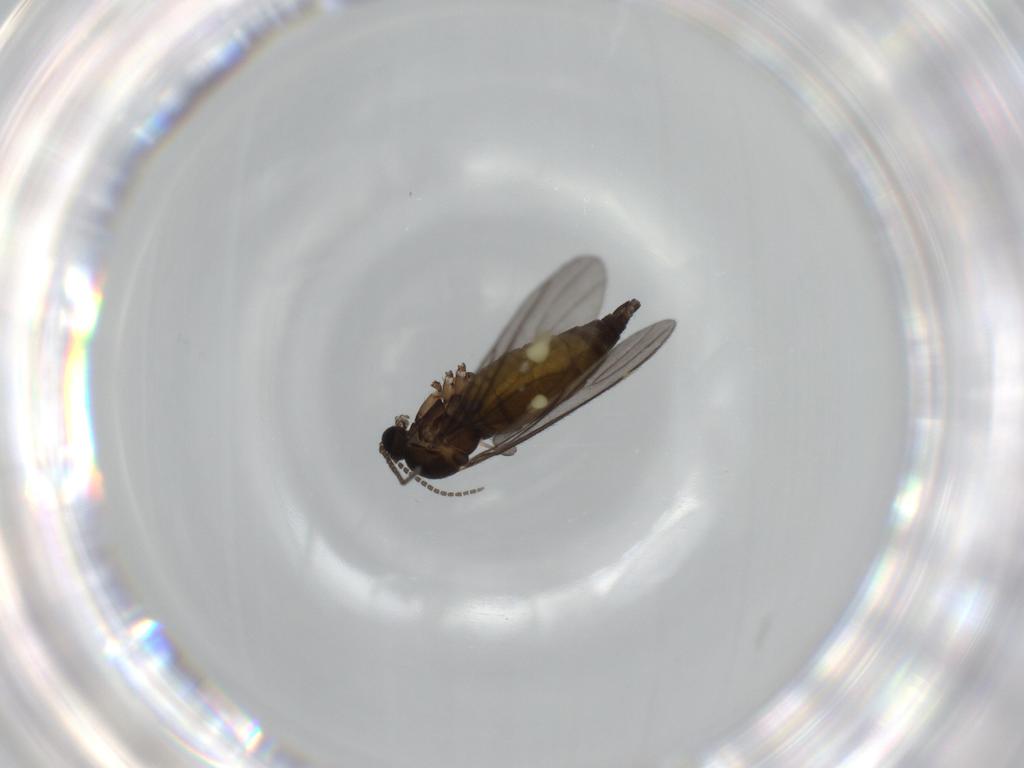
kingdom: Animalia
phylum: Arthropoda
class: Insecta
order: Diptera
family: Sciaridae
